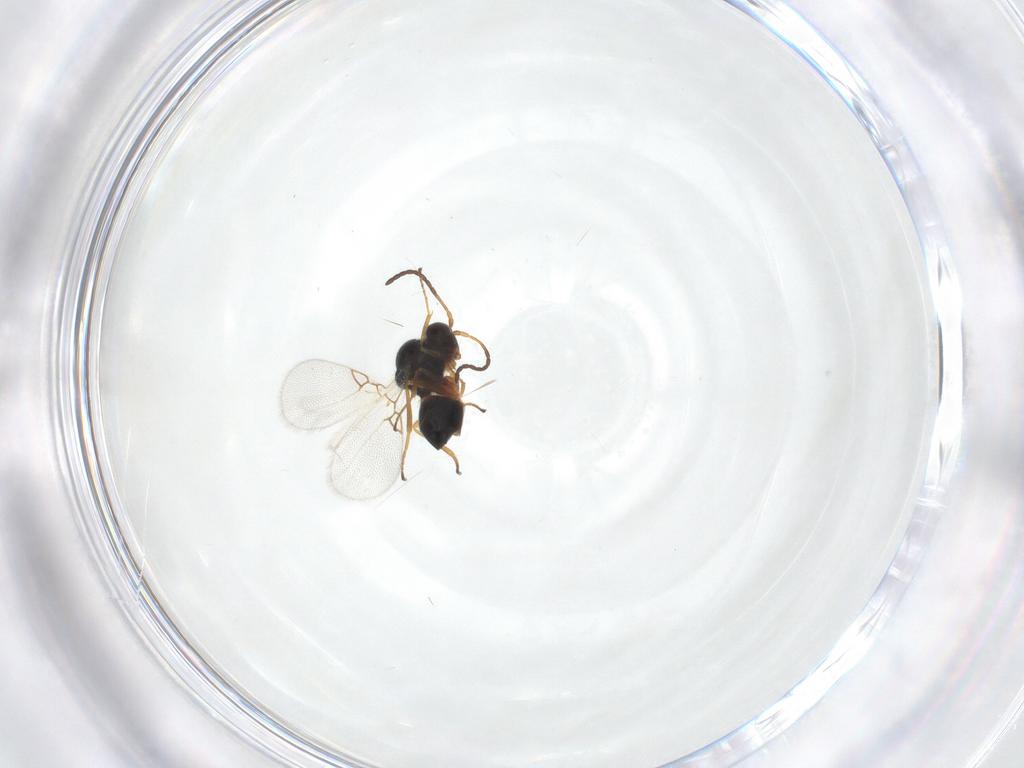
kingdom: Animalia
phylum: Arthropoda
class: Insecta
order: Hymenoptera
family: Figitidae
